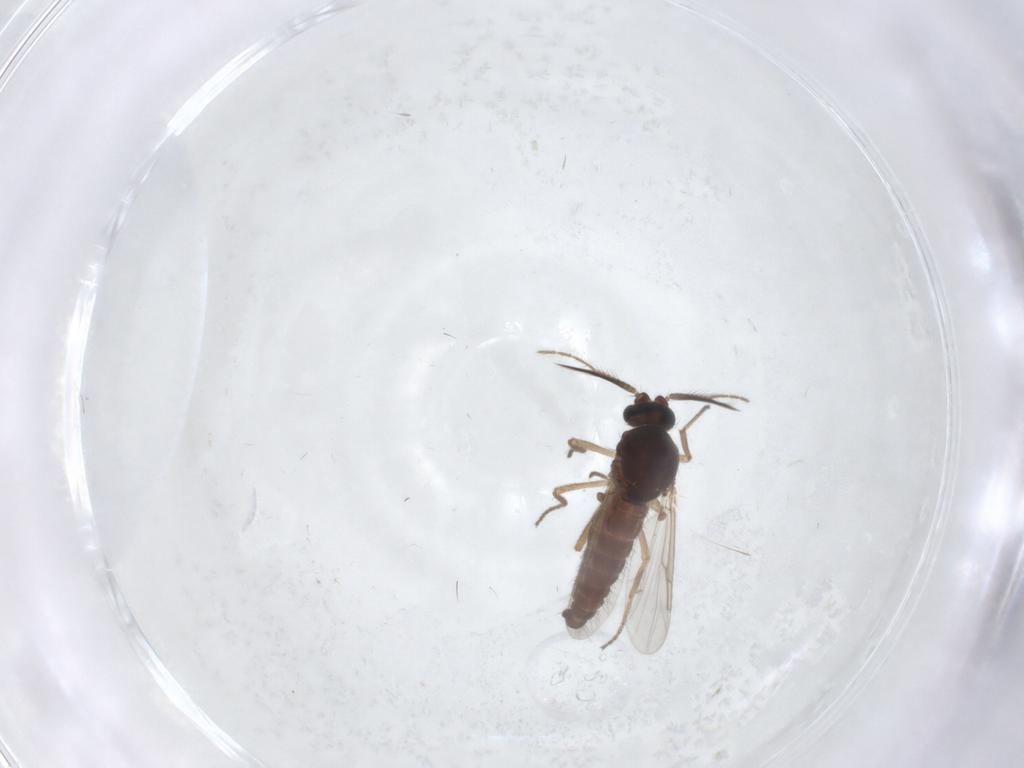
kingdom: Animalia
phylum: Arthropoda
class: Insecta
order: Diptera
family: Ceratopogonidae
